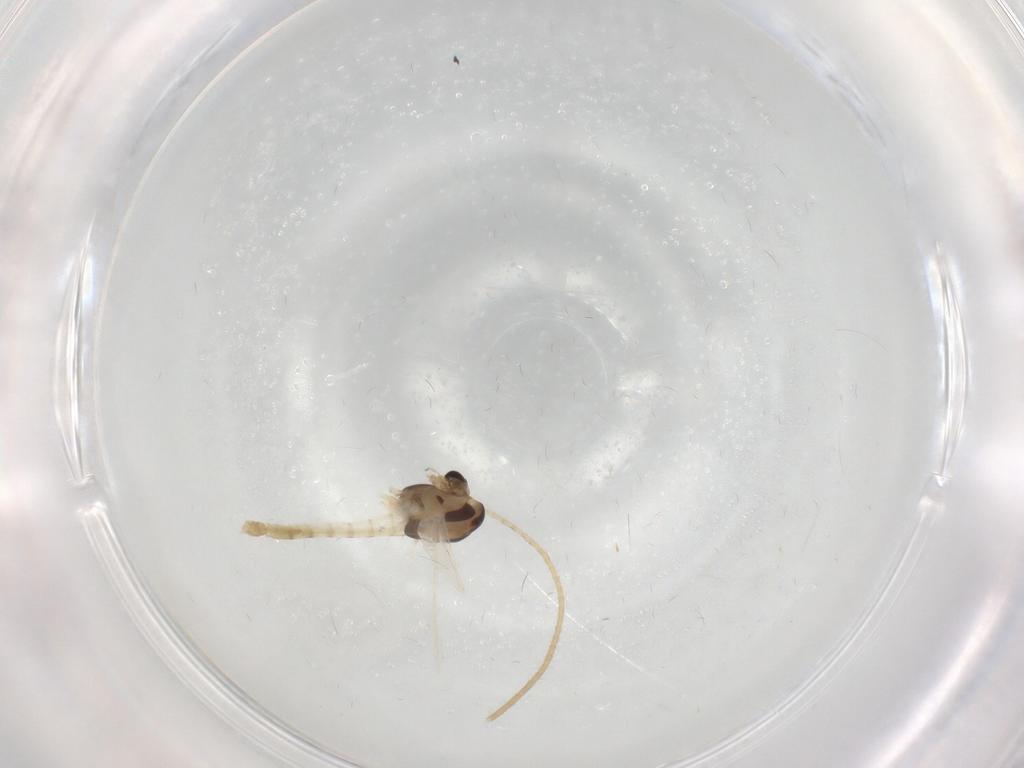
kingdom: Animalia
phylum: Arthropoda
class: Insecta
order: Diptera
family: Chironomidae
